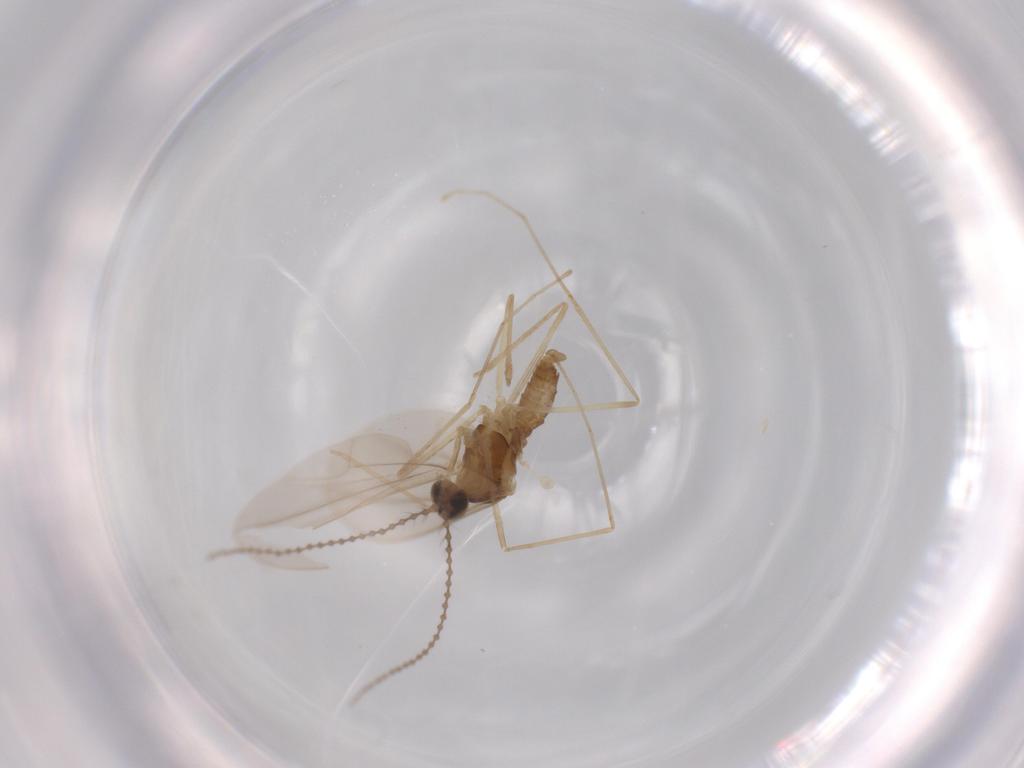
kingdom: Animalia
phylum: Arthropoda
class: Insecta
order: Diptera
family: Cecidomyiidae
